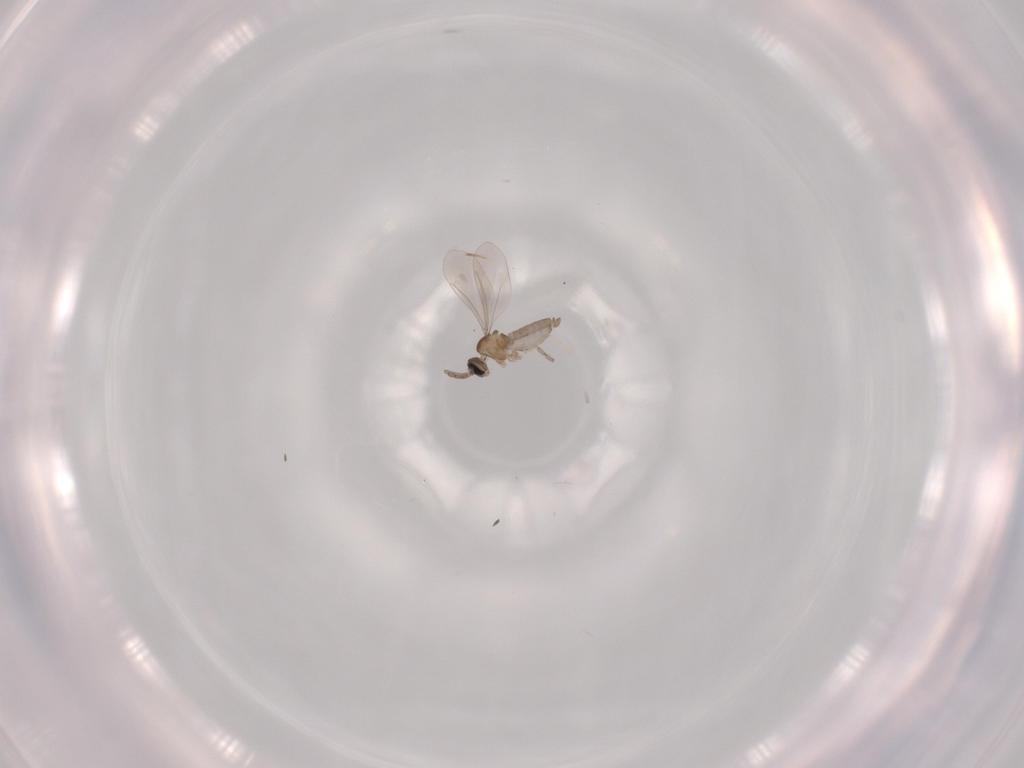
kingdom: Animalia
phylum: Arthropoda
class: Insecta
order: Diptera
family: Cecidomyiidae
